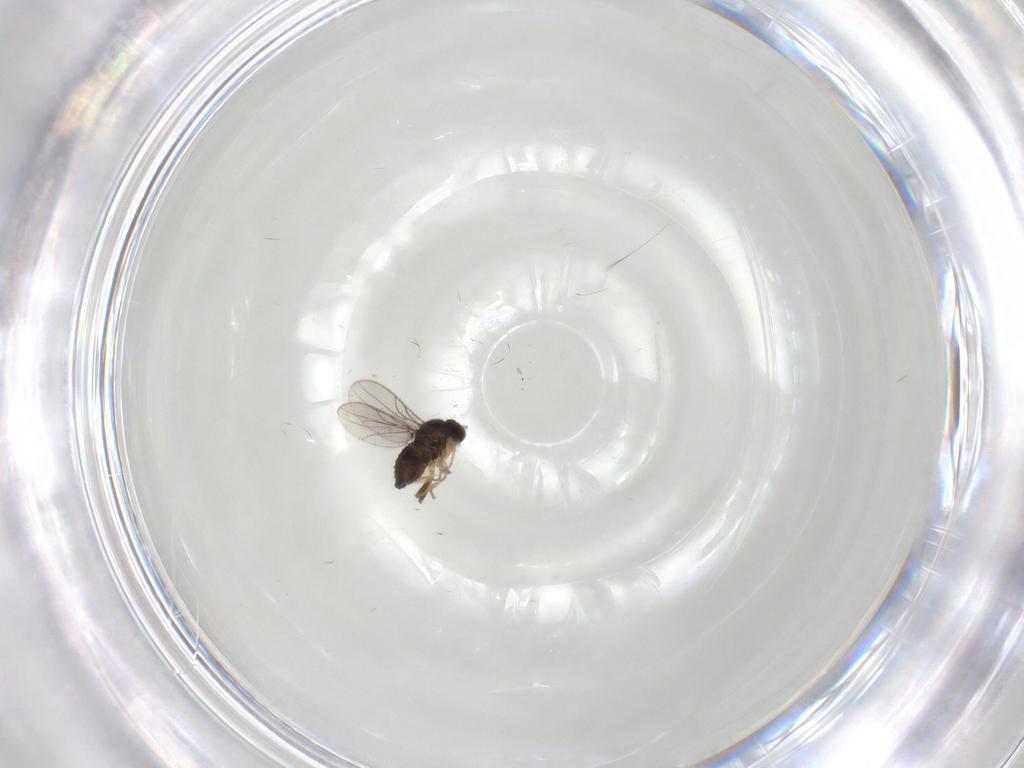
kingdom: Animalia
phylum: Arthropoda
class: Insecta
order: Diptera
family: Hybotidae
